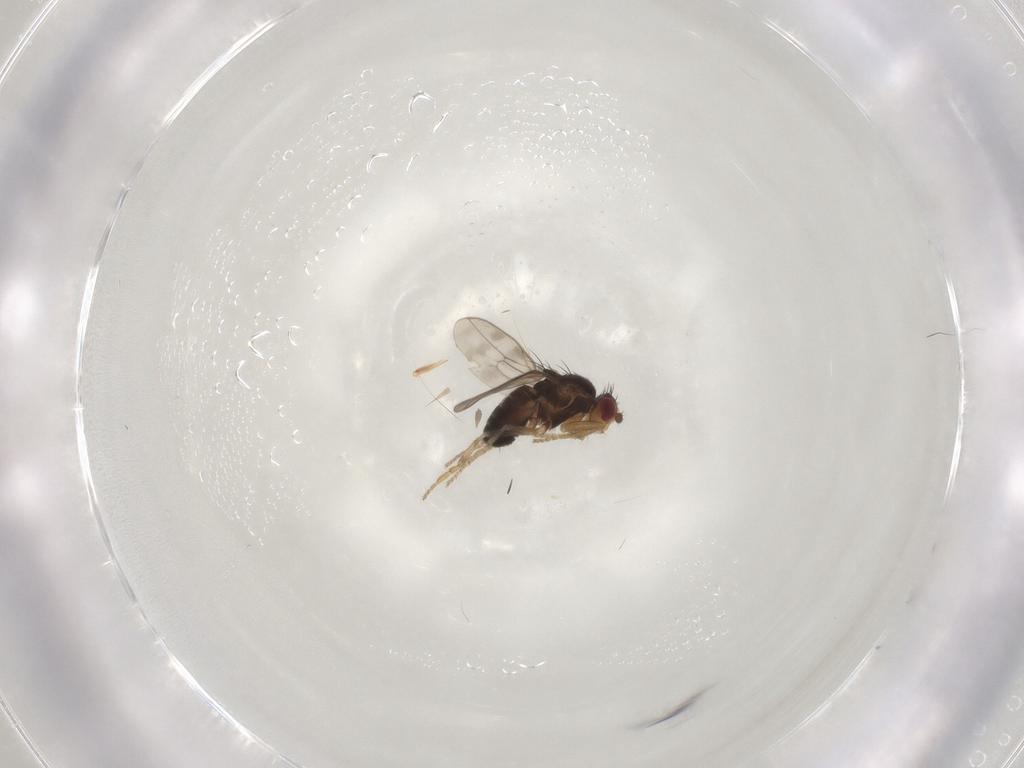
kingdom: Animalia
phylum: Arthropoda
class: Insecta
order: Diptera
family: Sphaeroceridae
